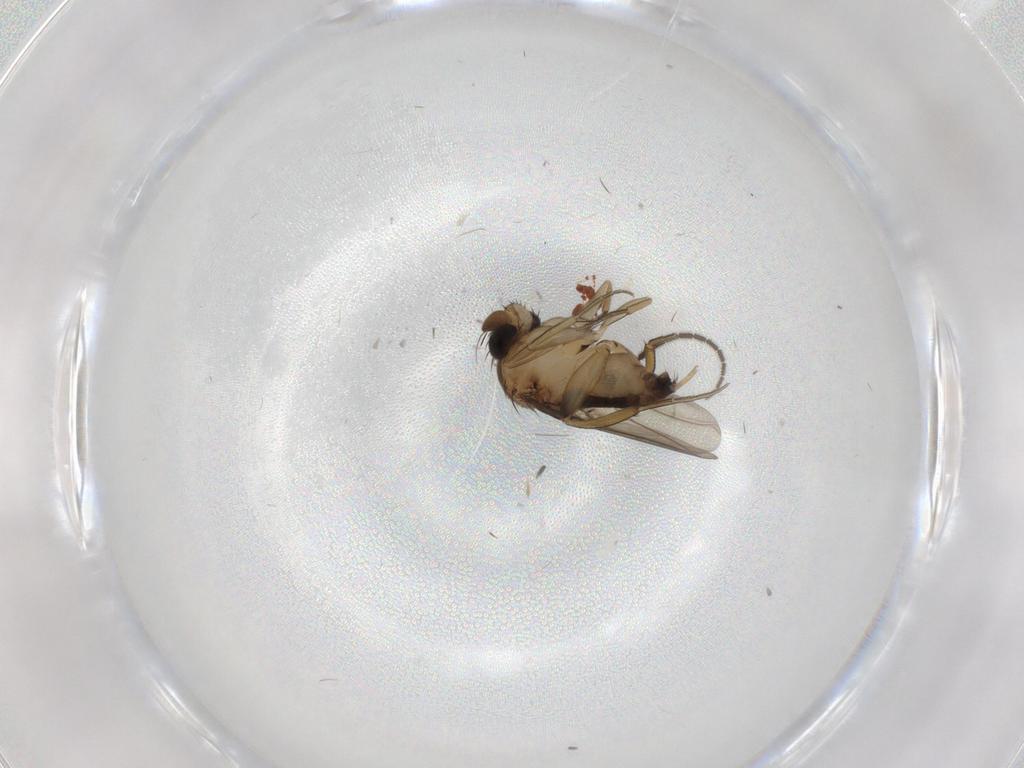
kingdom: Animalia
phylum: Arthropoda
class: Insecta
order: Diptera
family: Phoridae
